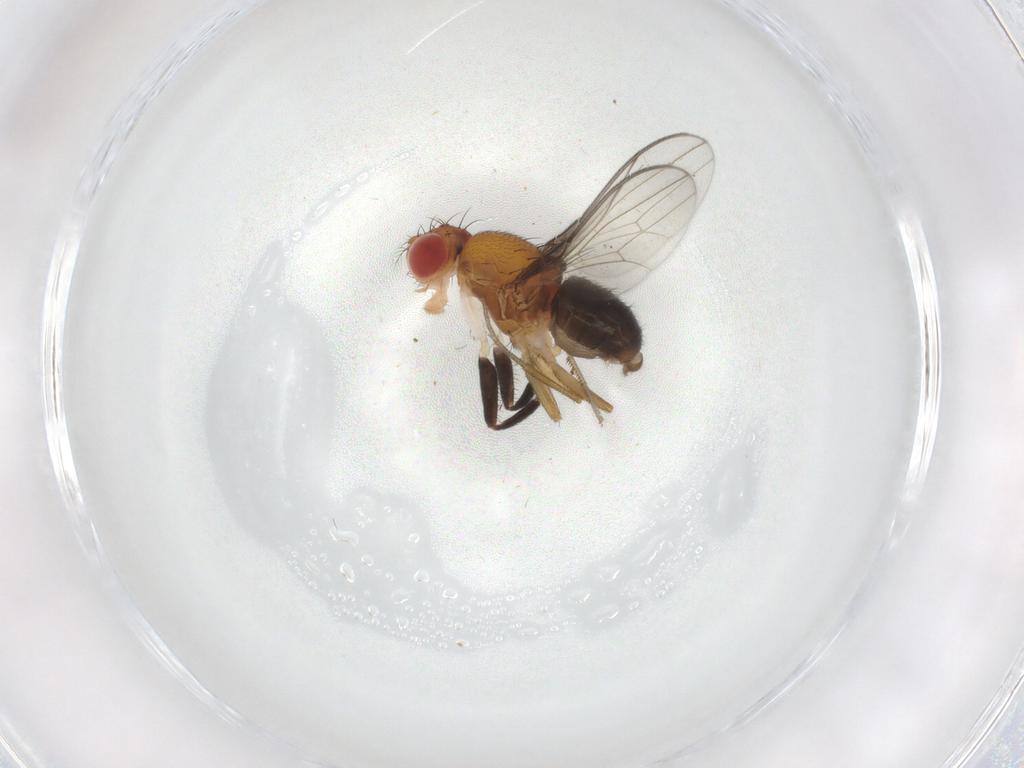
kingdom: Animalia
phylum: Arthropoda
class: Insecta
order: Diptera
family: Drosophilidae
